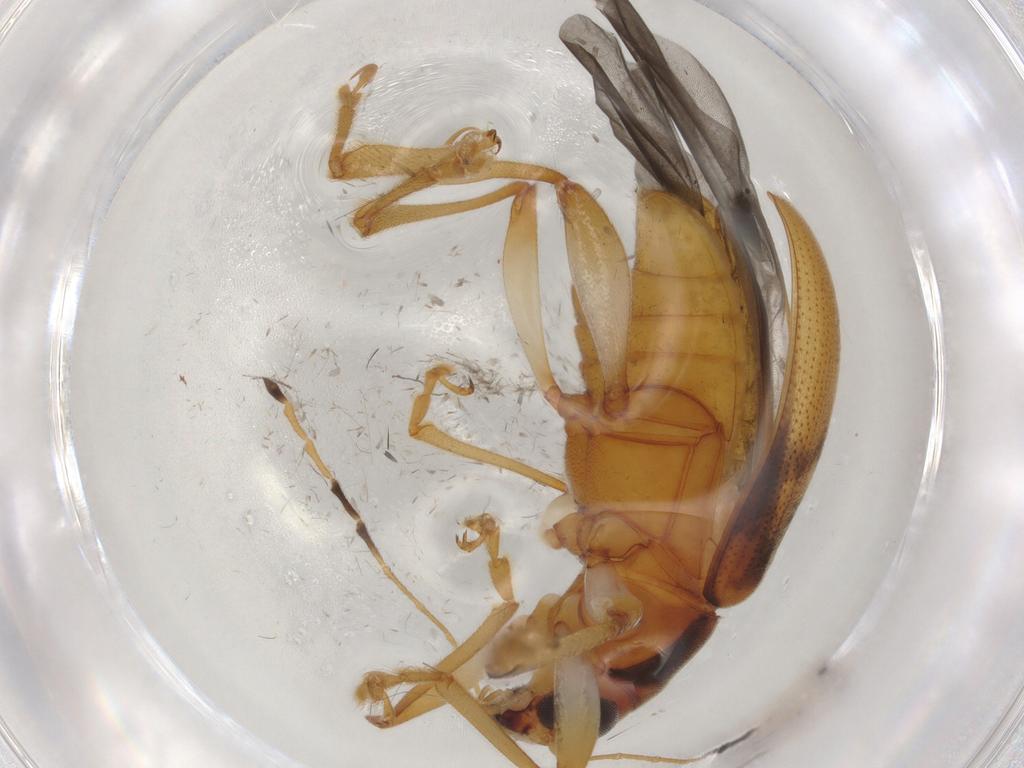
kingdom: Animalia
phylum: Arthropoda
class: Insecta
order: Coleoptera
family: Chrysomelidae
